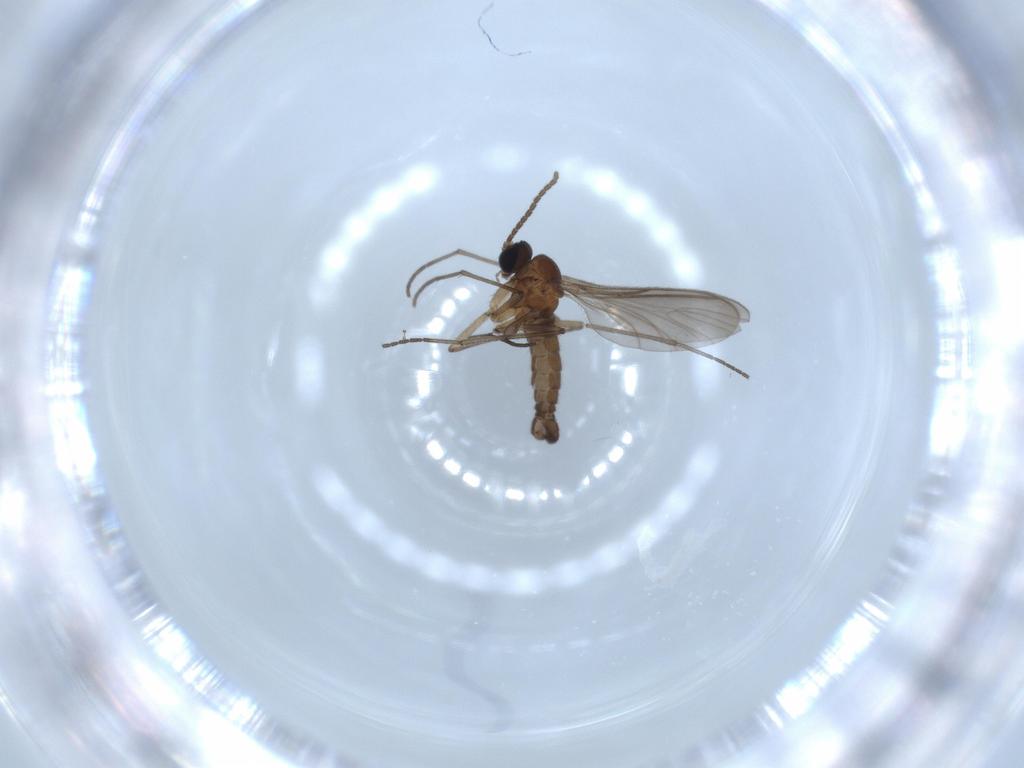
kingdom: Animalia
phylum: Arthropoda
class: Insecta
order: Diptera
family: Sciaridae
